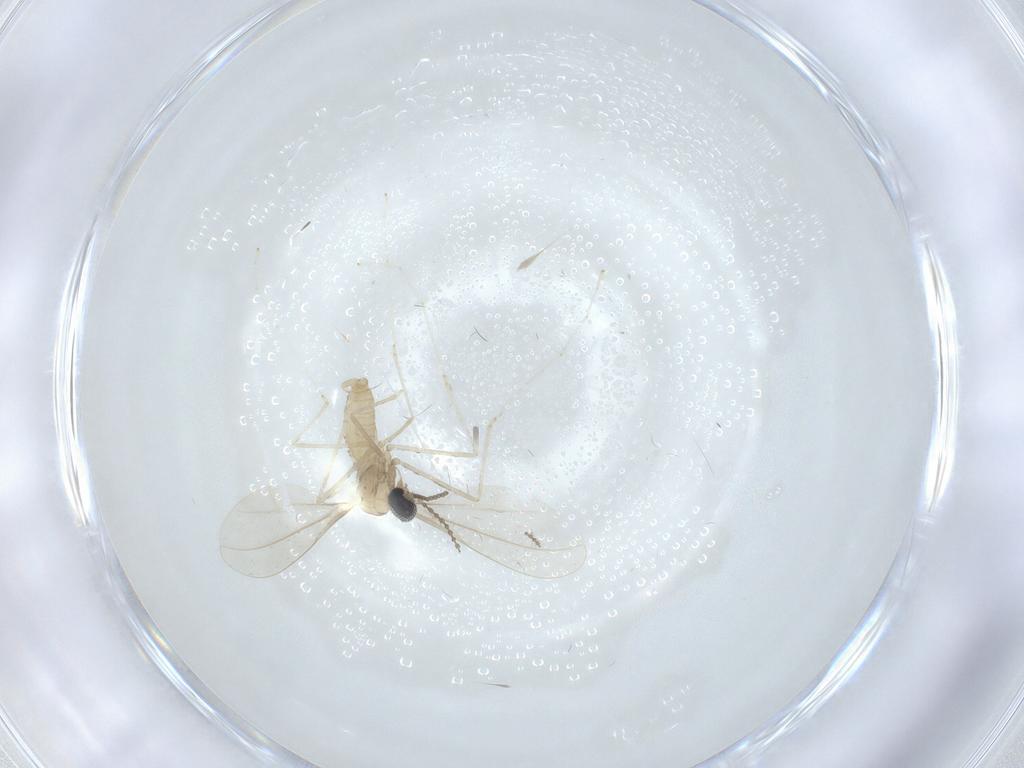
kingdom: Animalia
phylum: Arthropoda
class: Insecta
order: Diptera
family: Cecidomyiidae
